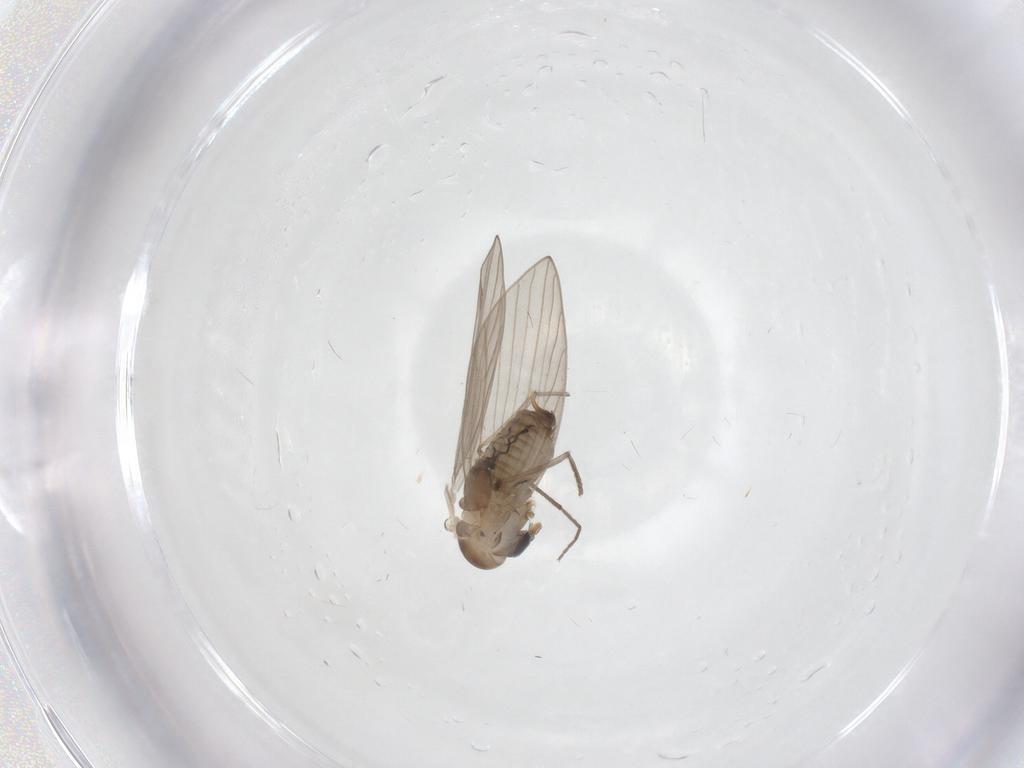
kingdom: Animalia
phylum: Arthropoda
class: Insecta
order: Diptera
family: Psychodidae
